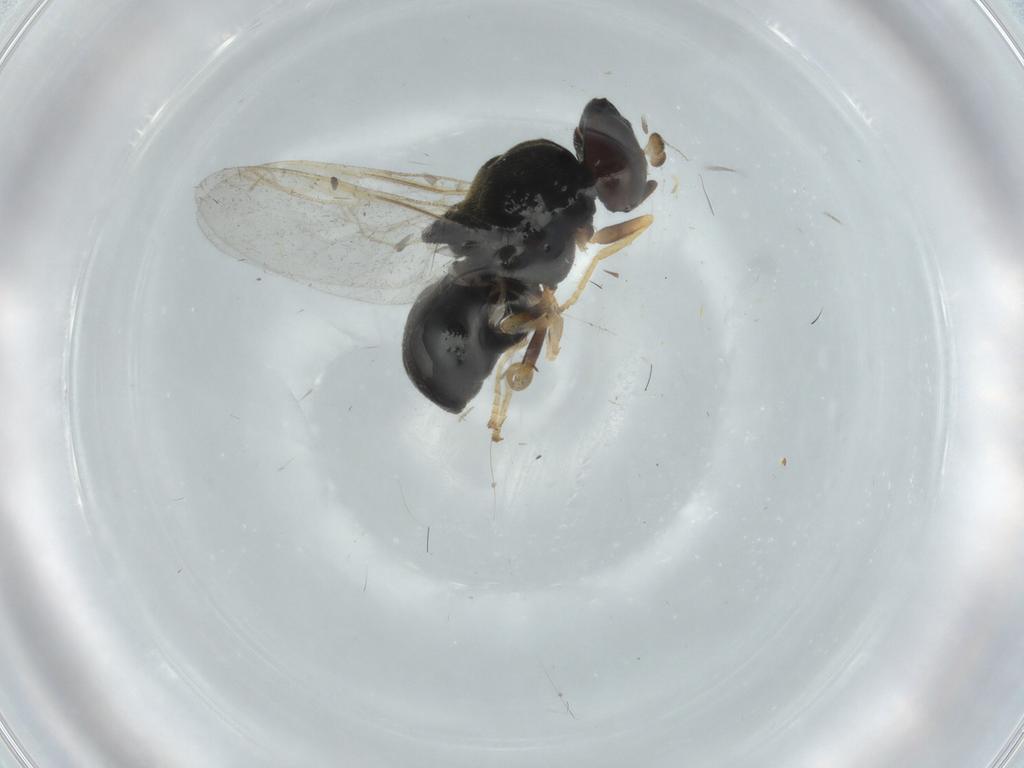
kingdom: Animalia
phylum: Arthropoda
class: Insecta
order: Diptera
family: Stratiomyidae
